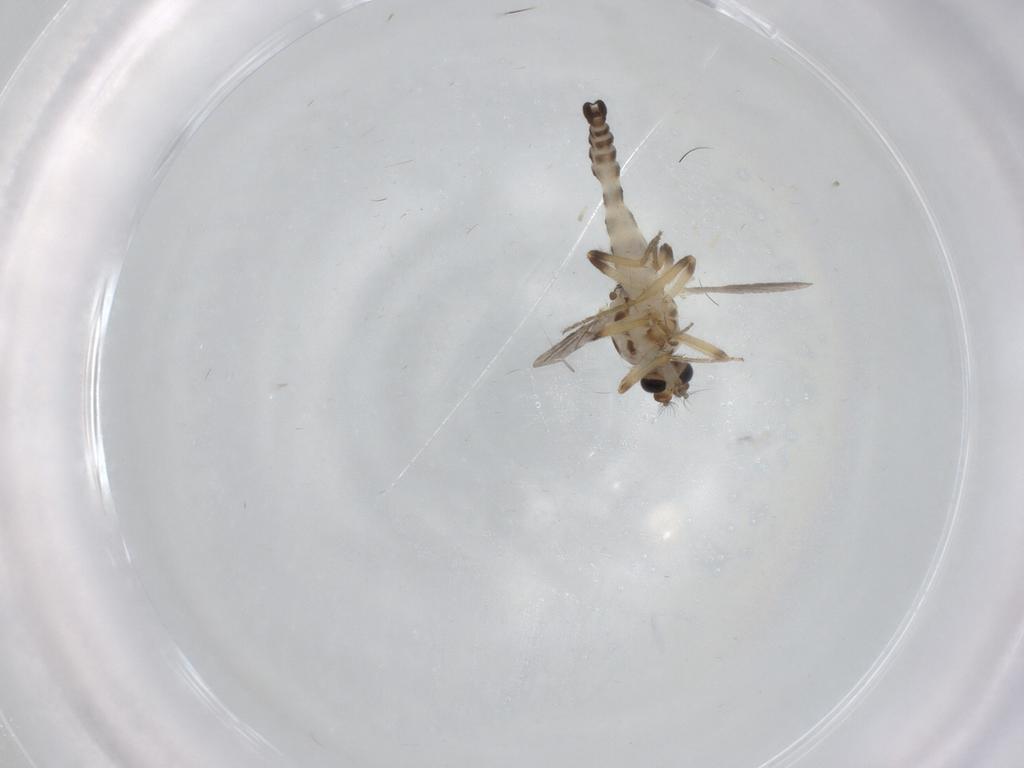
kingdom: Animalia
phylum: Arthropoda
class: Insecta
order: Diptera
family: Ceratopogonidae
